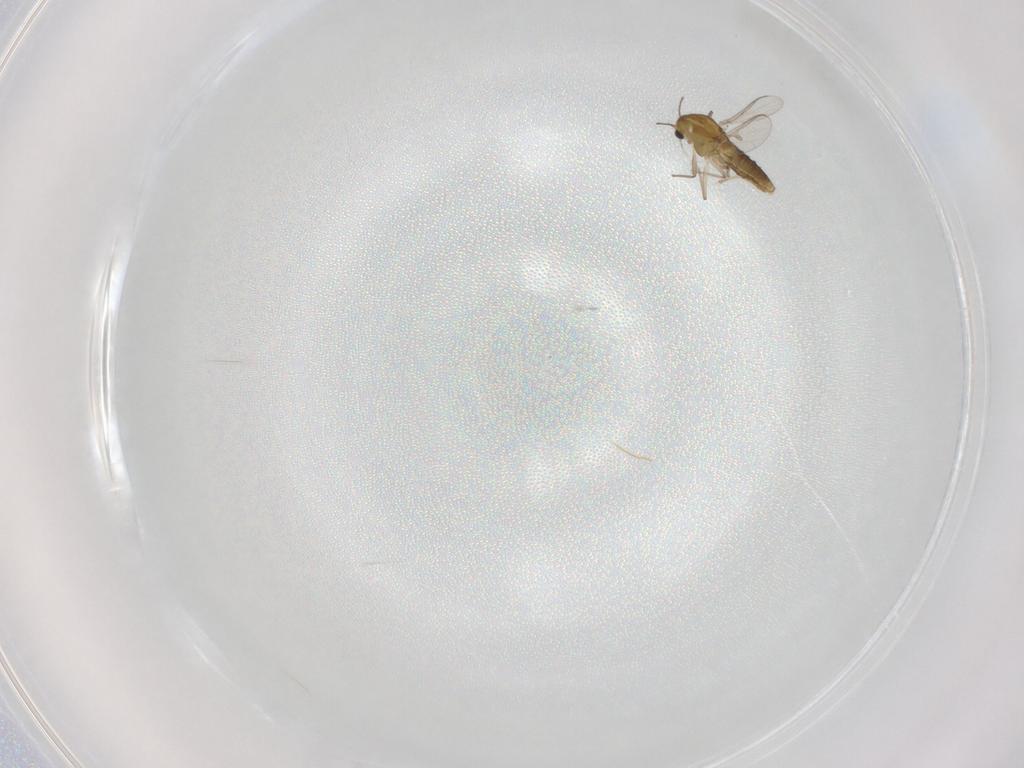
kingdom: Animalia
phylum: Arthropoda
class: Insecta
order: Diptera
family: Chironomidae
